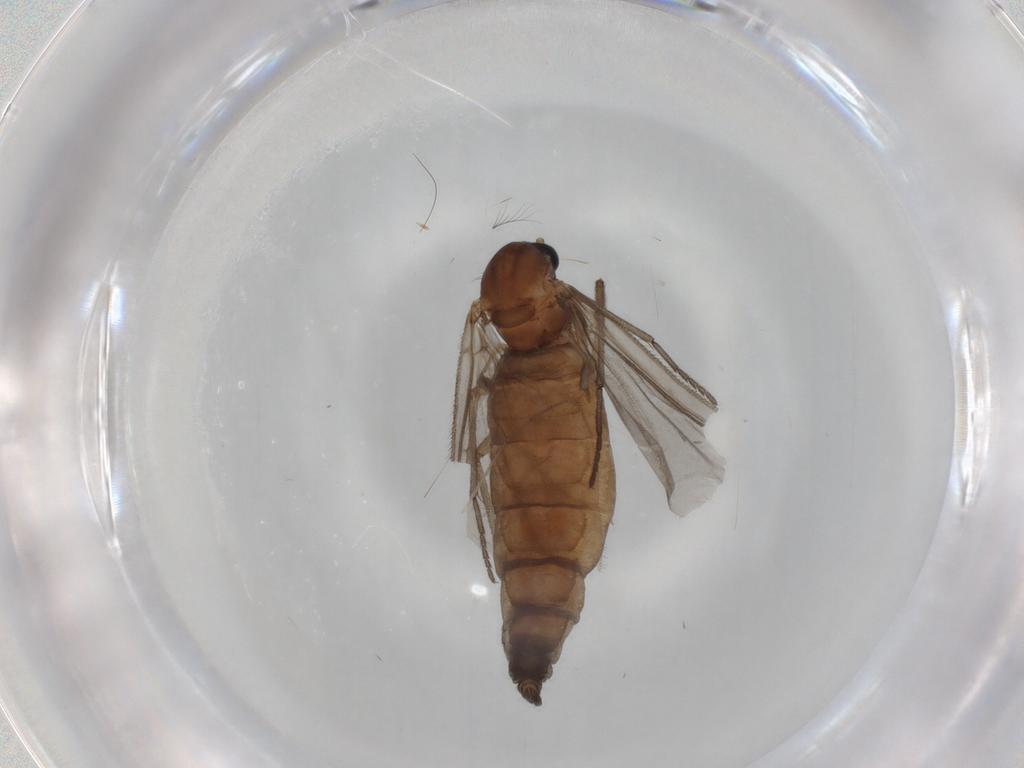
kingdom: Animalia
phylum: Arthropoda
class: Insecta
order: Diptera
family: Sciaridae
